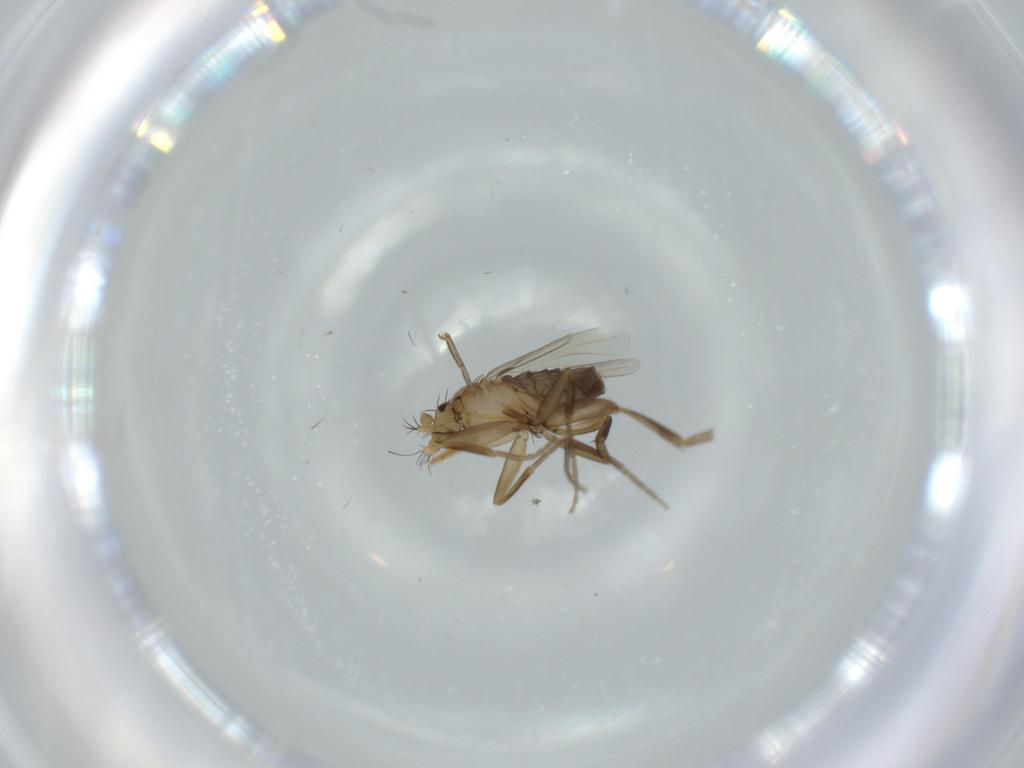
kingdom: Animalia
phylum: Arthropoda
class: Insecta
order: Diptera
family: Phoridae
